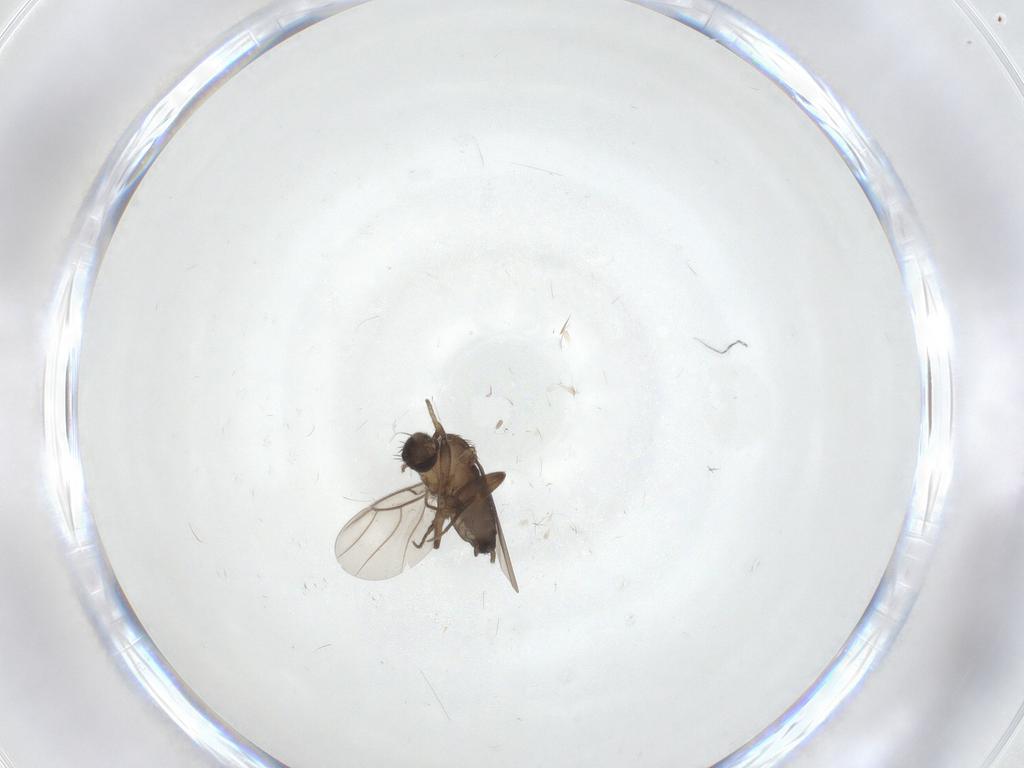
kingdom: Animalia
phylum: Arthropoda
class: Insecta
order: Diptera
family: Phoridae
